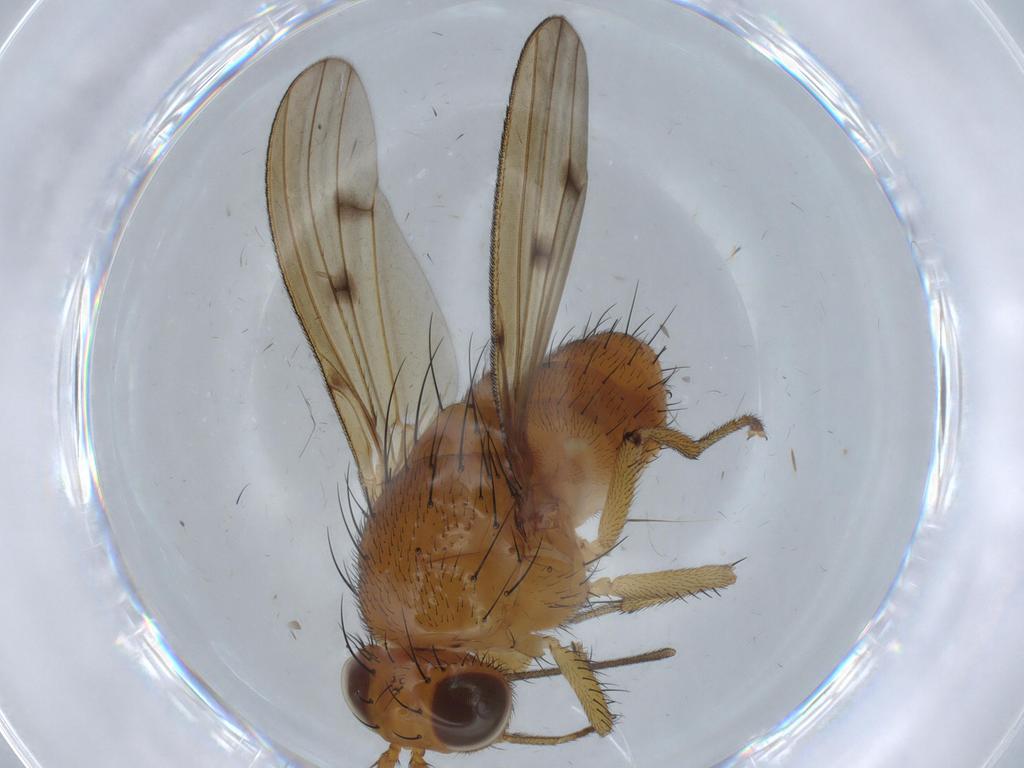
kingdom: Animalia
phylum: Arthropoda
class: Insecta
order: Diptera
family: Ditomyiidae
